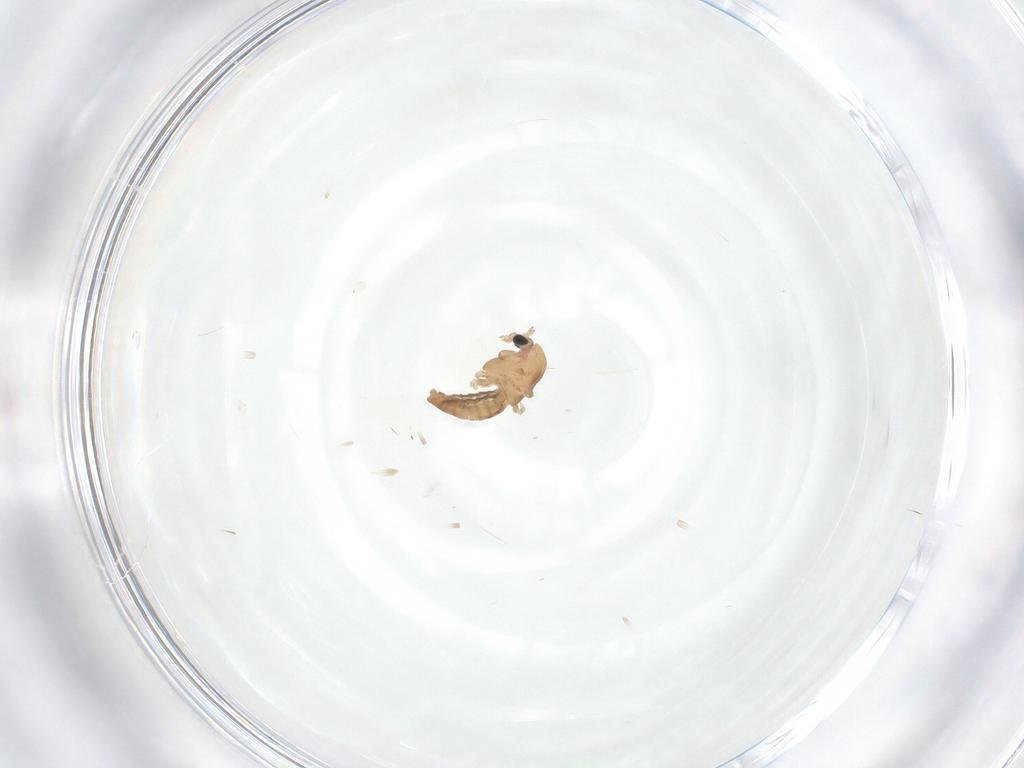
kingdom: Animalia
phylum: Arthropoda
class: Insecta
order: Diptera
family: Chironomidae
